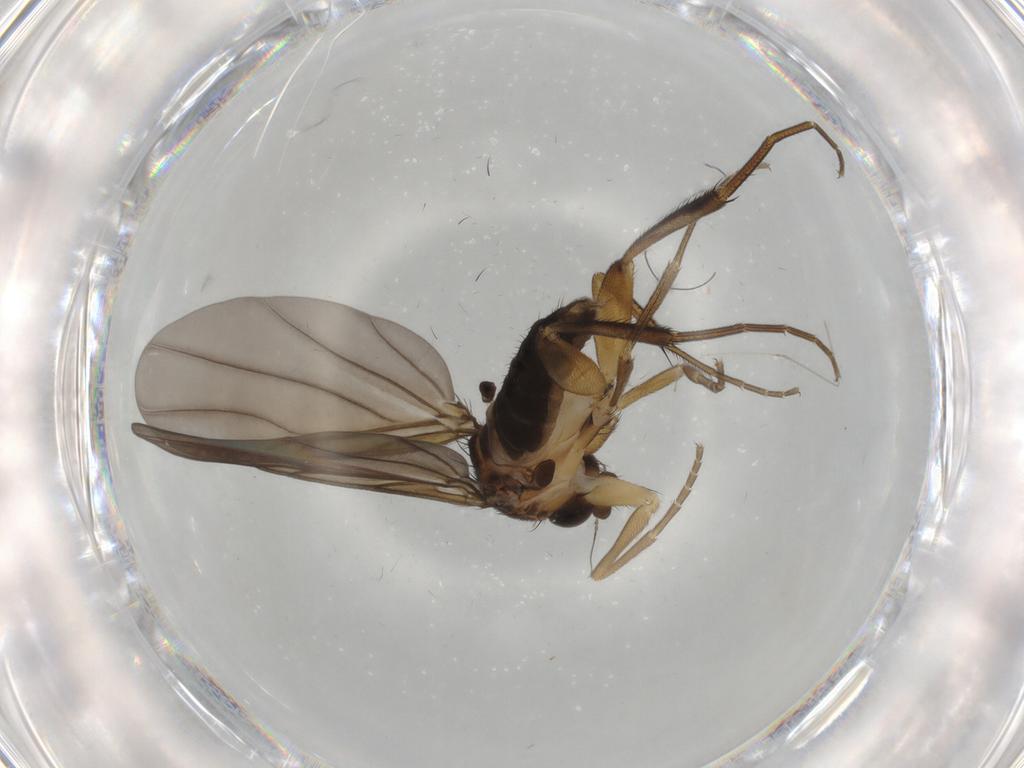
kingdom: Animalia
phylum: Arthropoda
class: Insecta
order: Diptera
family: Phoridae
